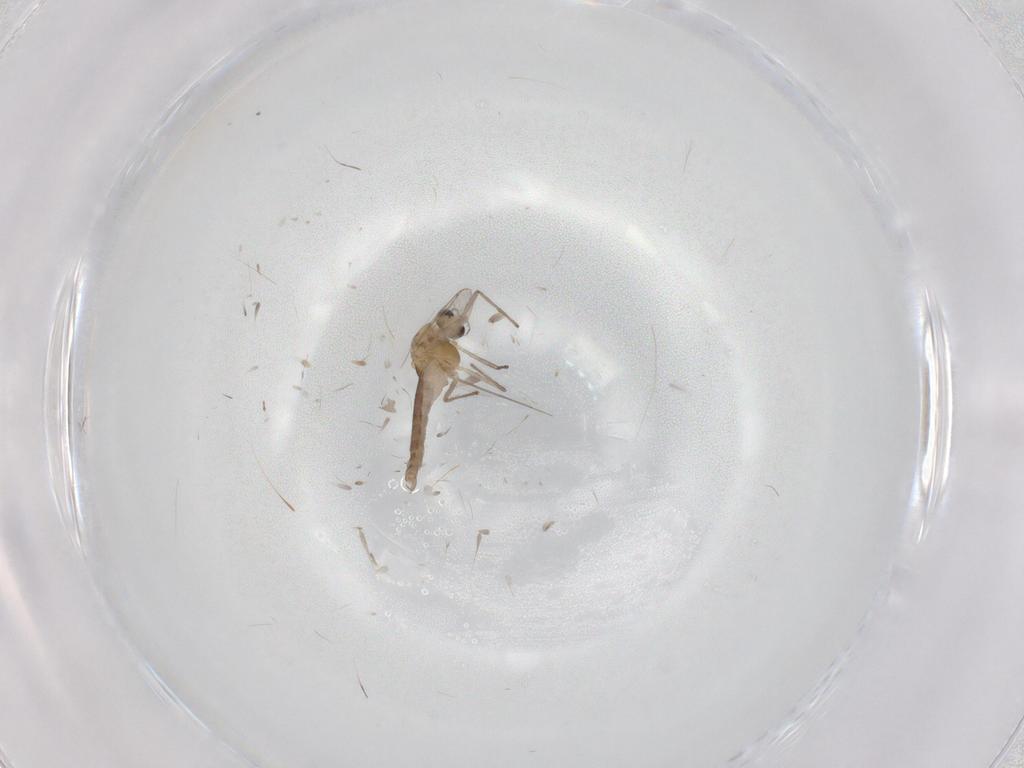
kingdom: Animalia
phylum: Arthropoda
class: Insecta
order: Diptera
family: Chironomidae
